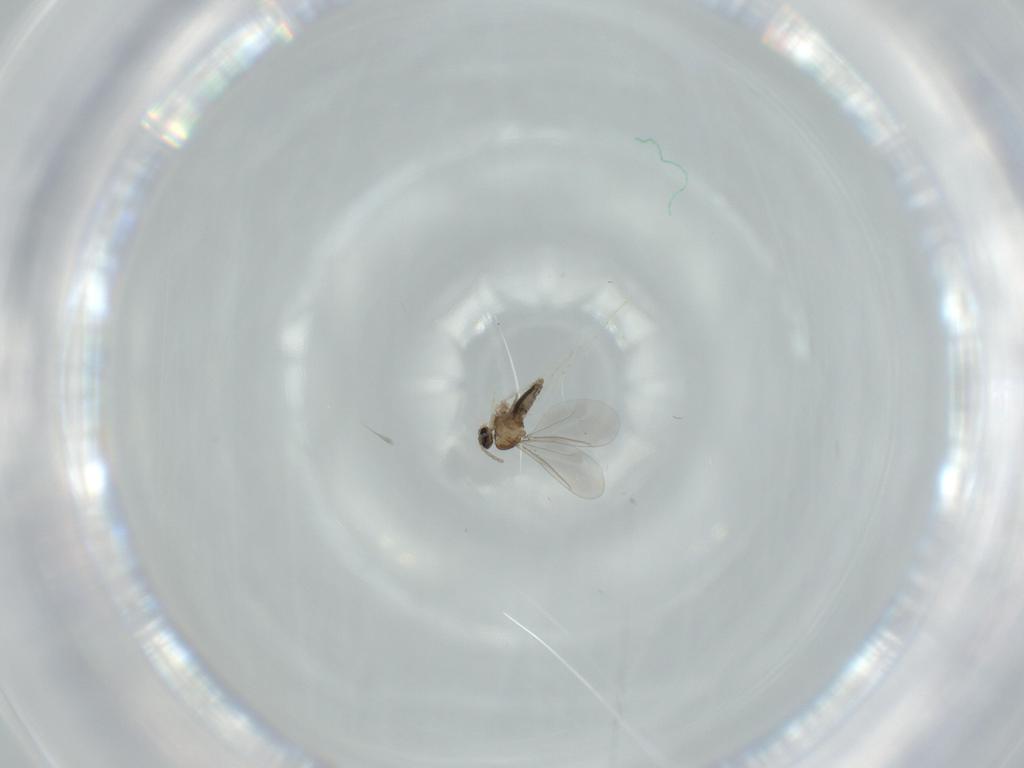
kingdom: Animalia
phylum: Arthropoda
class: Insecta
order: Diptera
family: Cecidomyiidae
